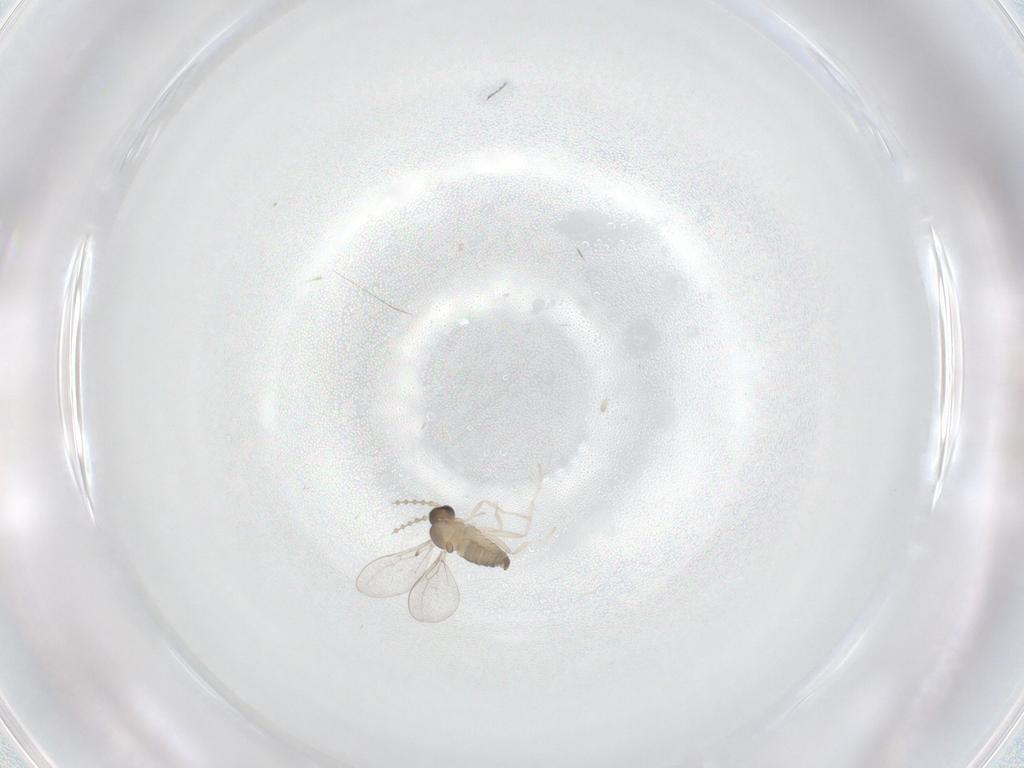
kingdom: Animalia
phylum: Arthropoda
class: Insecta
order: Diptera
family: Cecidomyiidae
